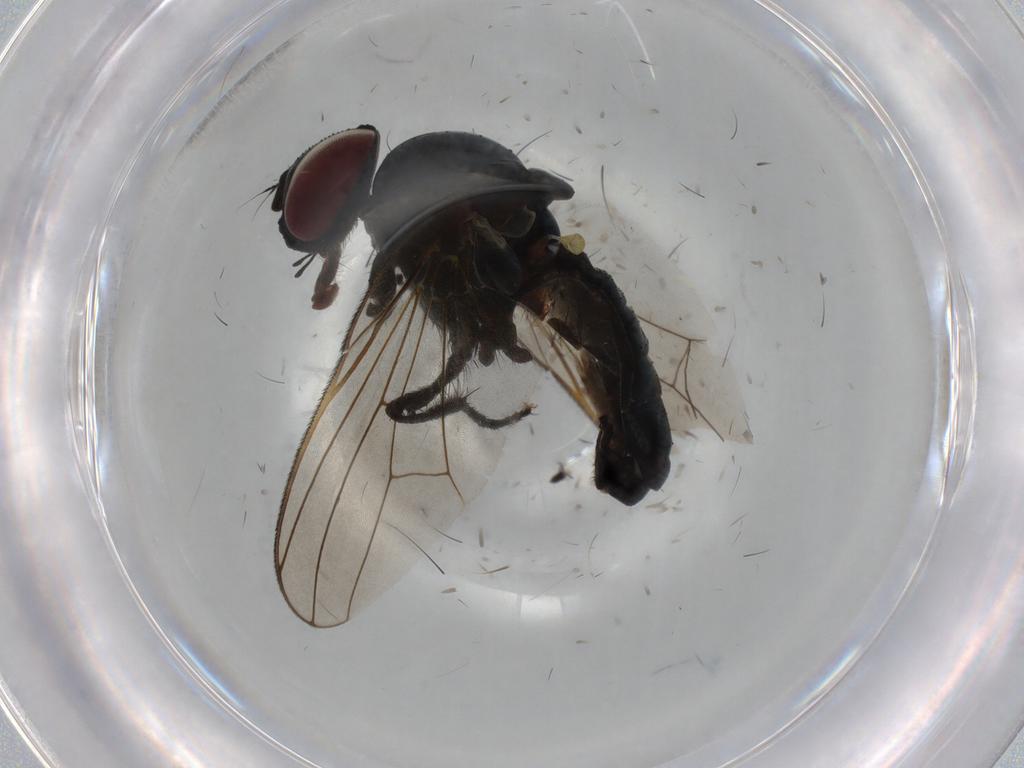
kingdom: Animalia
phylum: Arthropoda
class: Insecta
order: Diptera
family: Fannia
